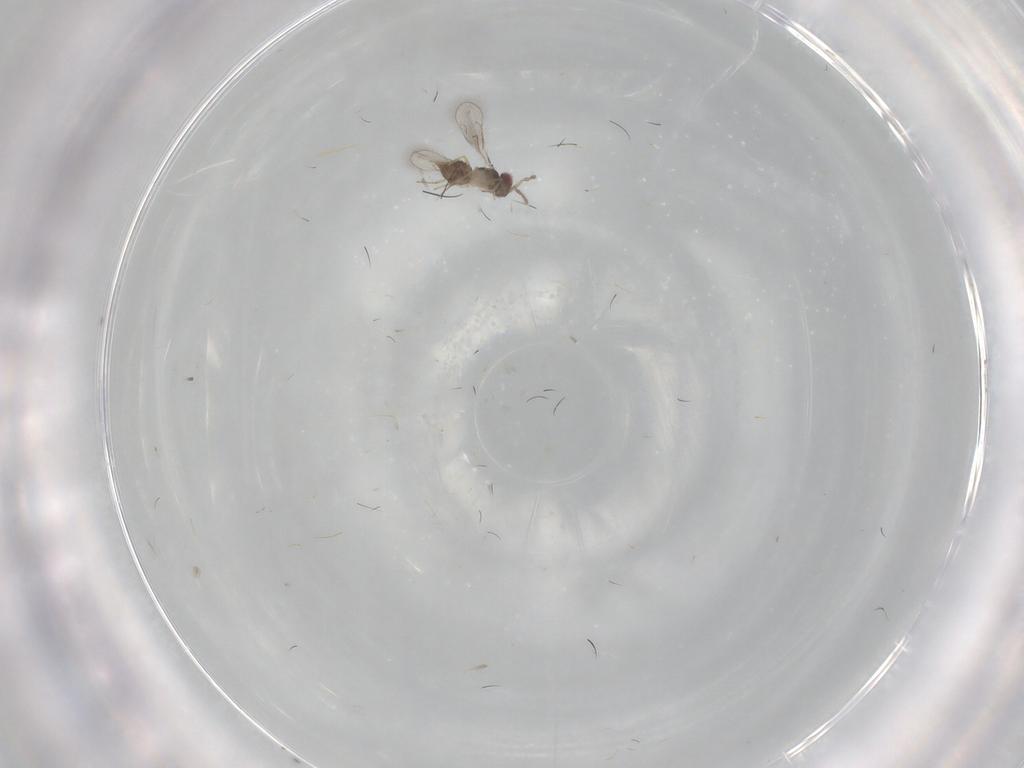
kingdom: Animalia
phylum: Arthropoda
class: Insecta
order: Diptera
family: Cecidomyiidae
